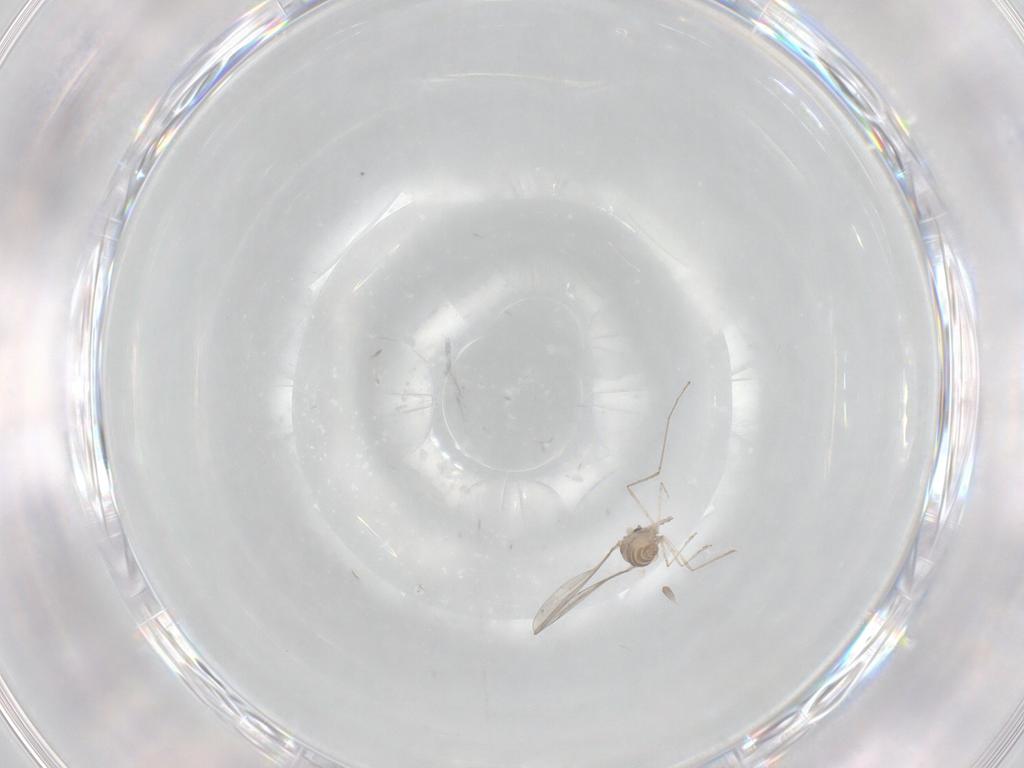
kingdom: Animalia
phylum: Arthropoda
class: Insecta
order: Diptera
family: Cecidomyiidae
